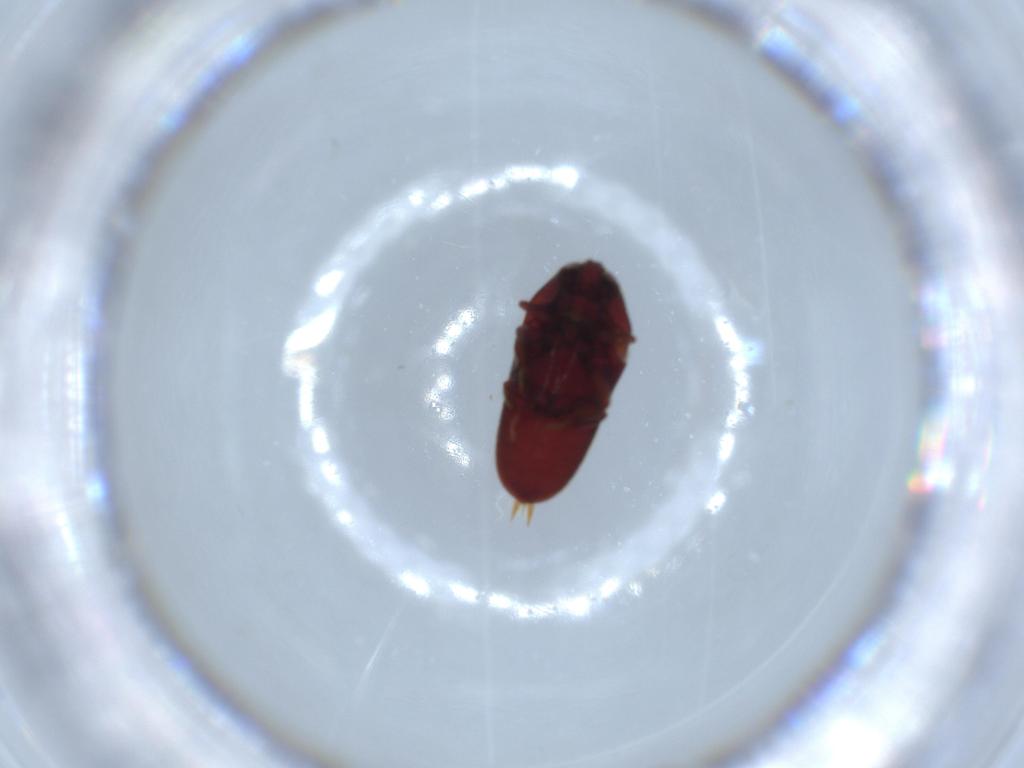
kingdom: Animalia
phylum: Arthropoda
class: Insecta
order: Coleoptera
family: Throscidae
